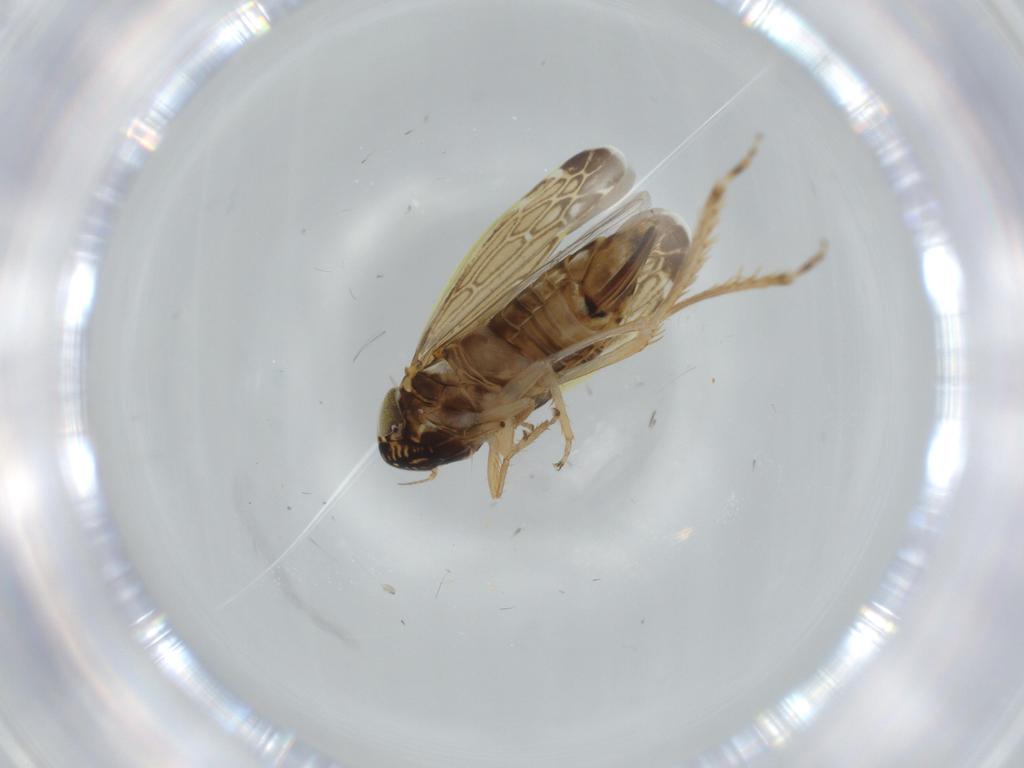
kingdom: Animalia
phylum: Arthropoda
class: Insecta
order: Hemiptera
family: Cicadellidae
